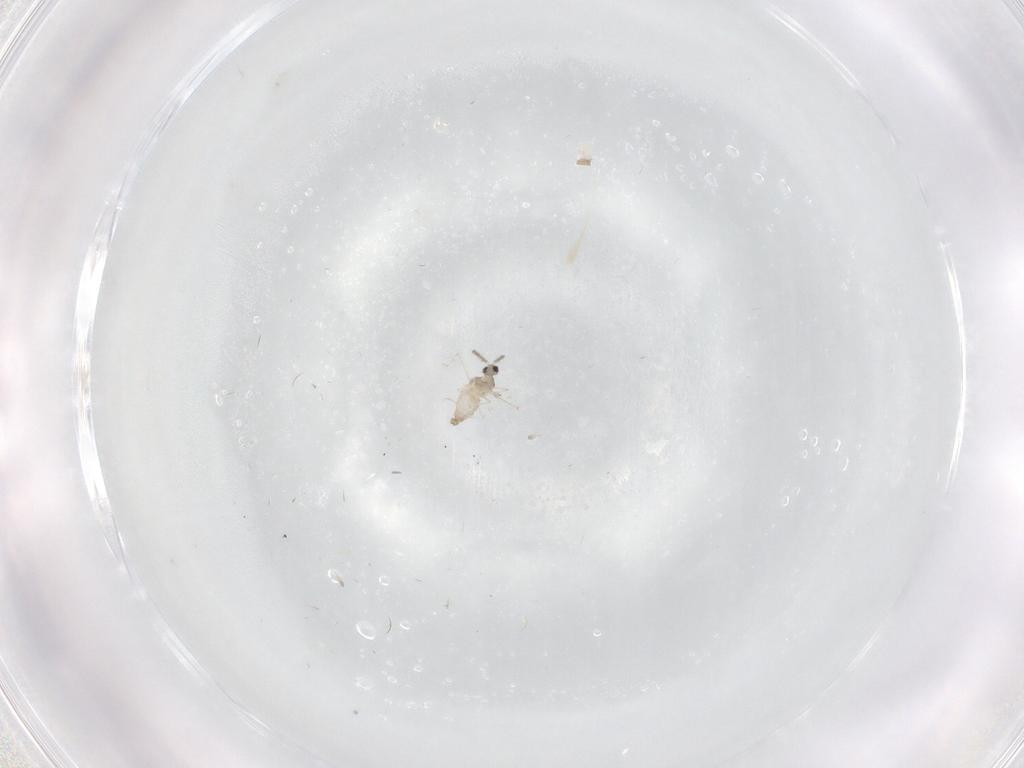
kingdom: Animalia
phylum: Arthropoda
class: Insecta
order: Diptera
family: Cecidomyiidae
